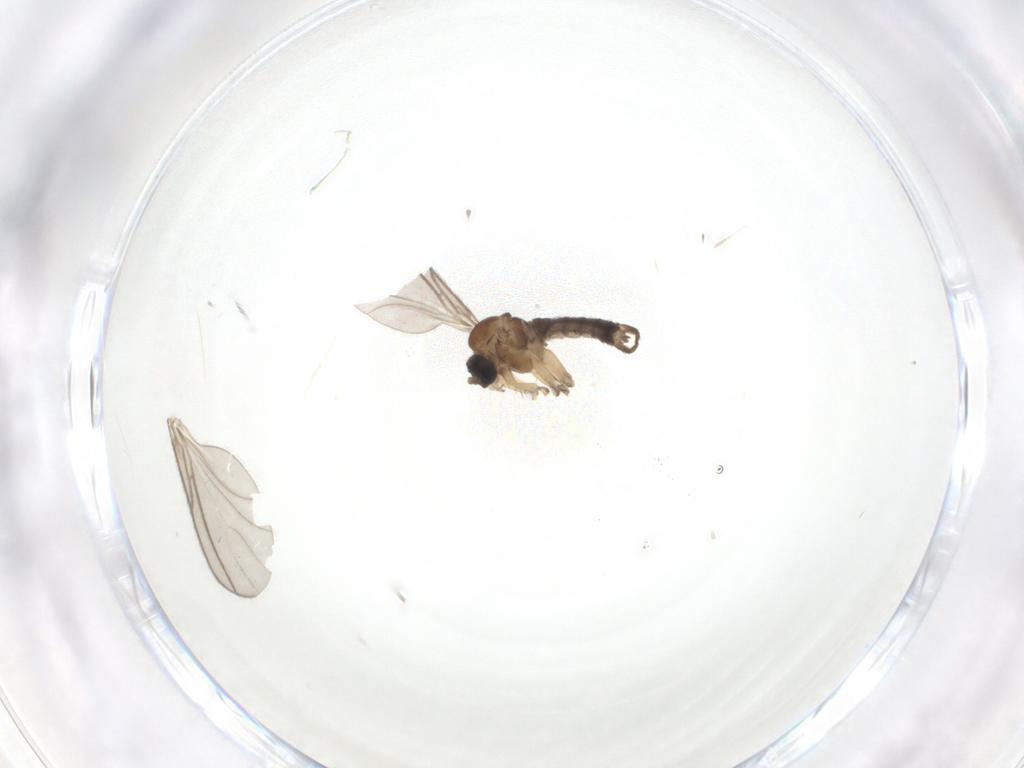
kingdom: Animalia
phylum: Arthropoda
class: Insecta
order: Diptera
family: Sciaridae
